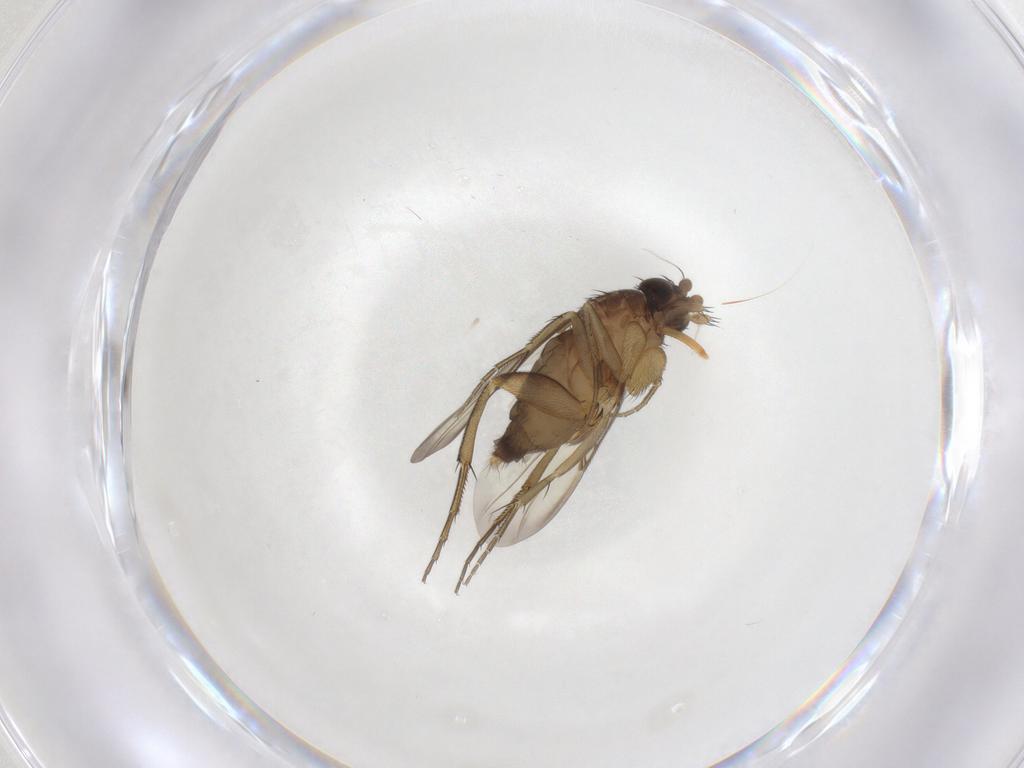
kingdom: Animalia
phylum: Arthropoda
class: Insecta
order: Diptera
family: Phoridae
